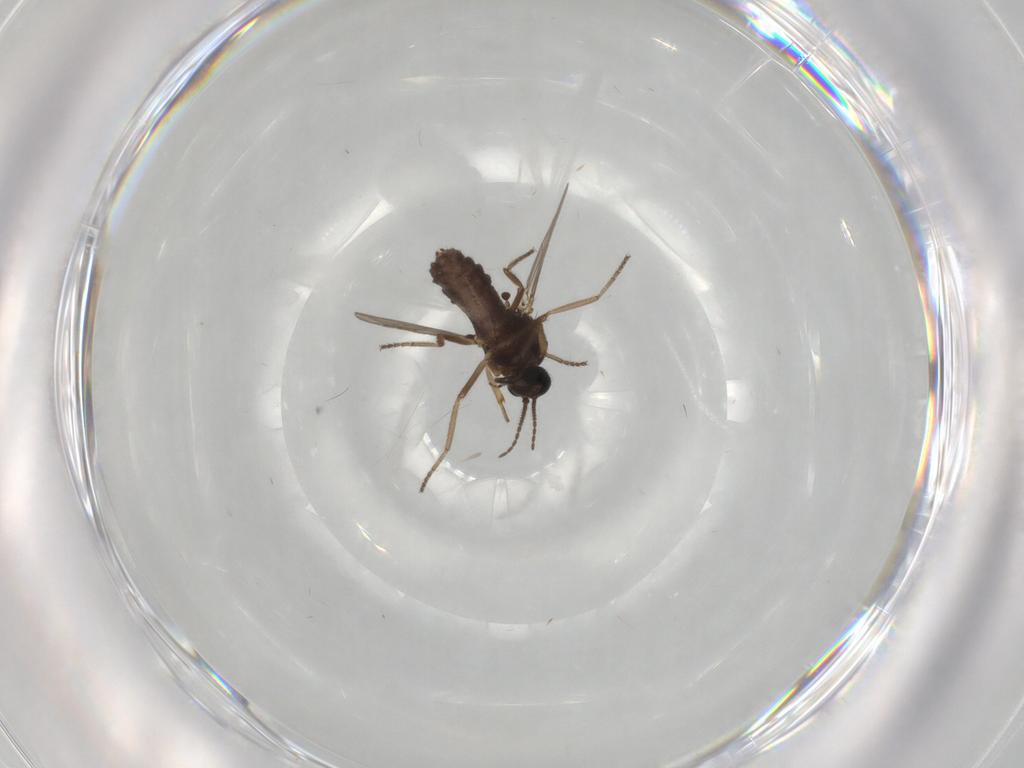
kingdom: Animalia
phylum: Arthropoda
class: Insecta
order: Diptera
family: Ceratopogonidae
